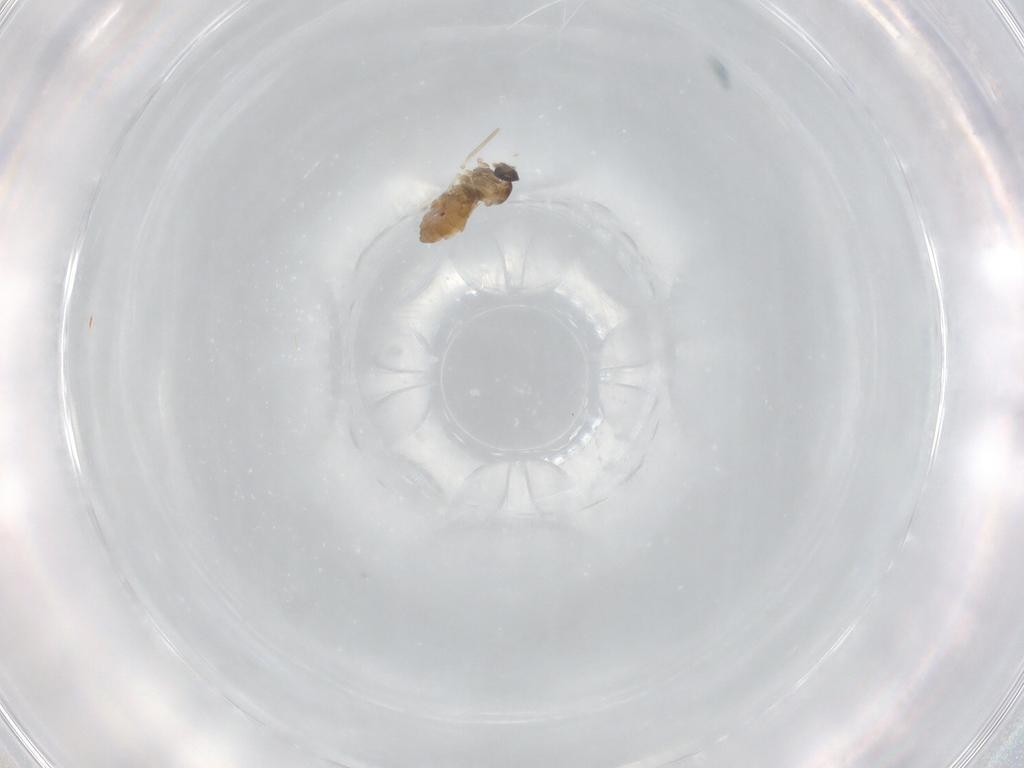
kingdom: Animalia
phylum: Arthropoda
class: Insecta
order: Diptera
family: Cecidomyiidae
